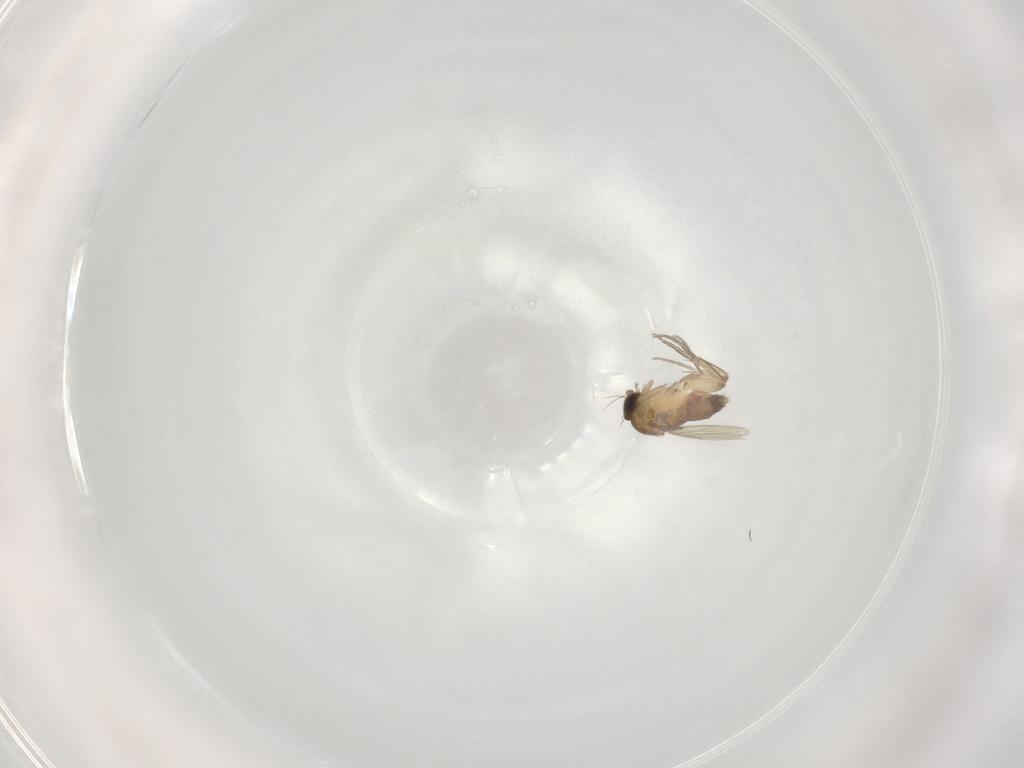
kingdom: Animalia
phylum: Arthropoda
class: Insecta
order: Diptera
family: Phoridae
